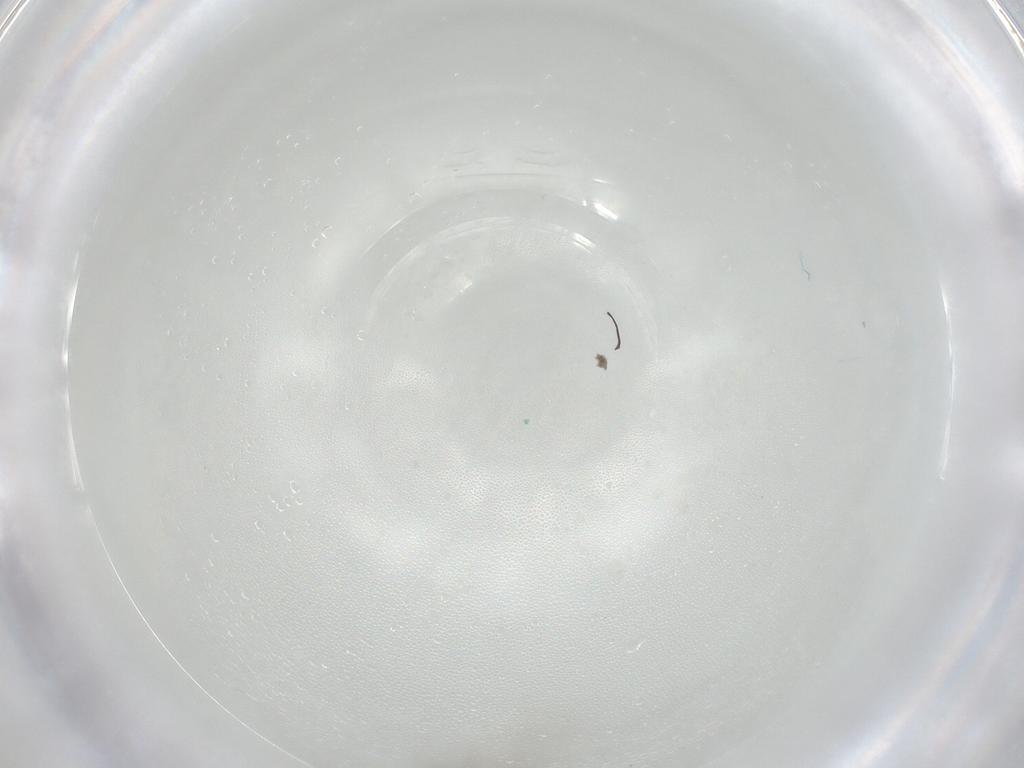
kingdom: Animalia
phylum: Arthropoda
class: Insecta
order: Diptera
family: Chironomidae
